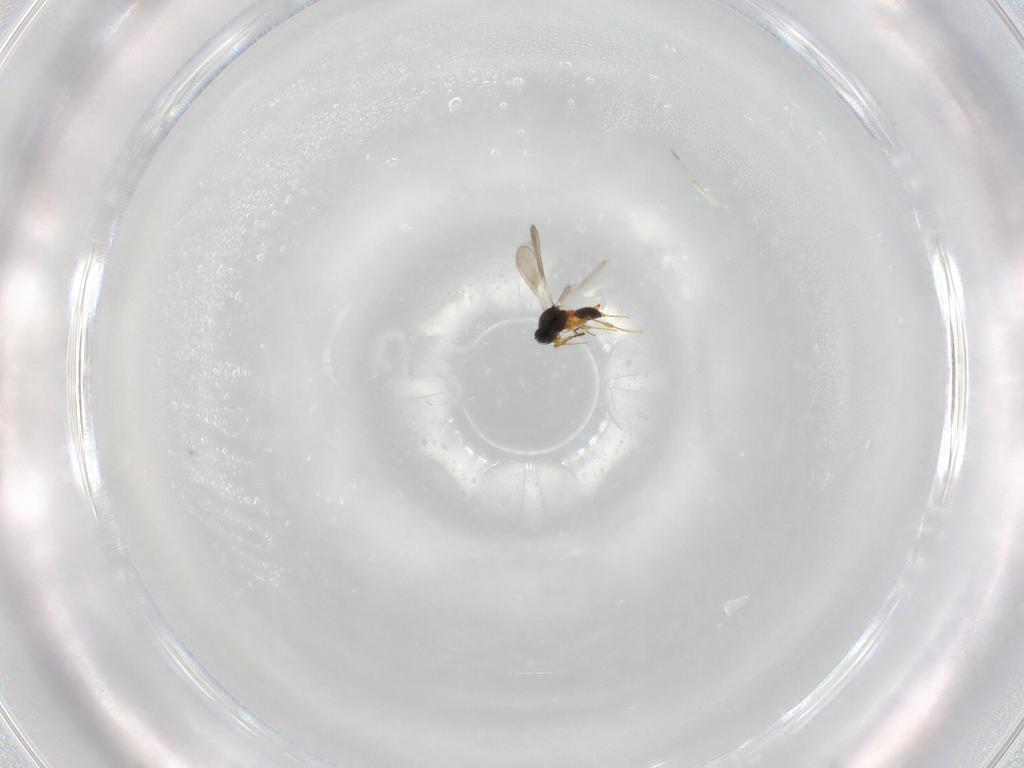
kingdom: Animalia
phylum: Arthropoda
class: Insecta
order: Hymenoptera
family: Platygastridae
